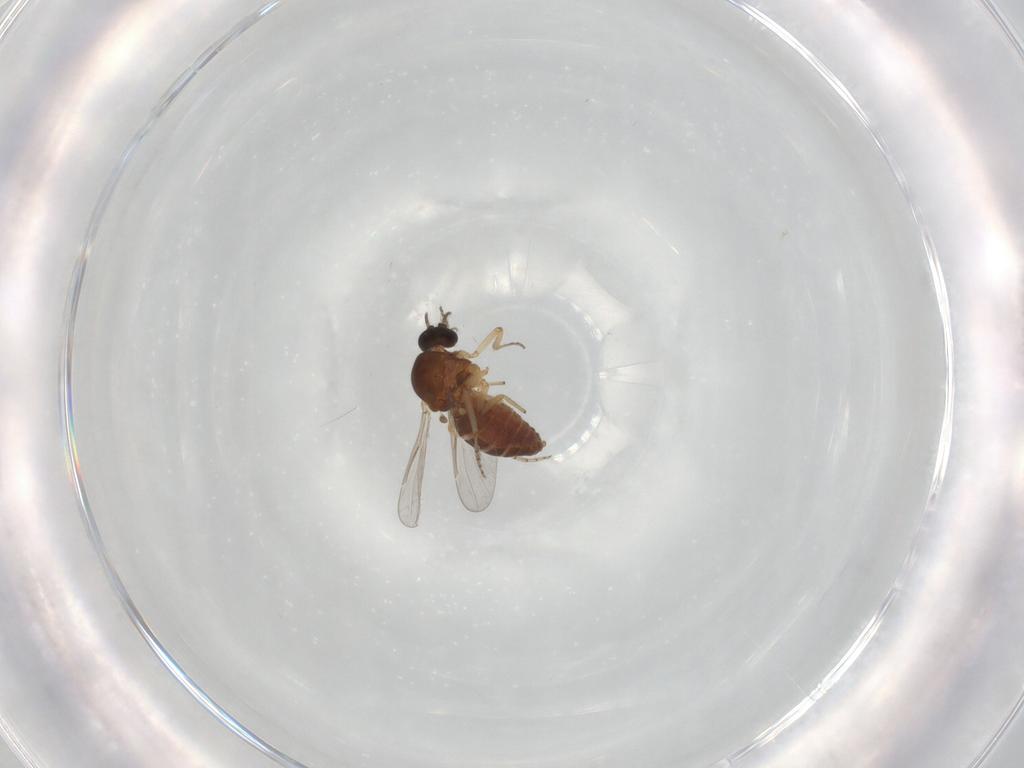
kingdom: Animalia
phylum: Arthropoda
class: Insecta
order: Diptera
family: Ceratopogonidae
